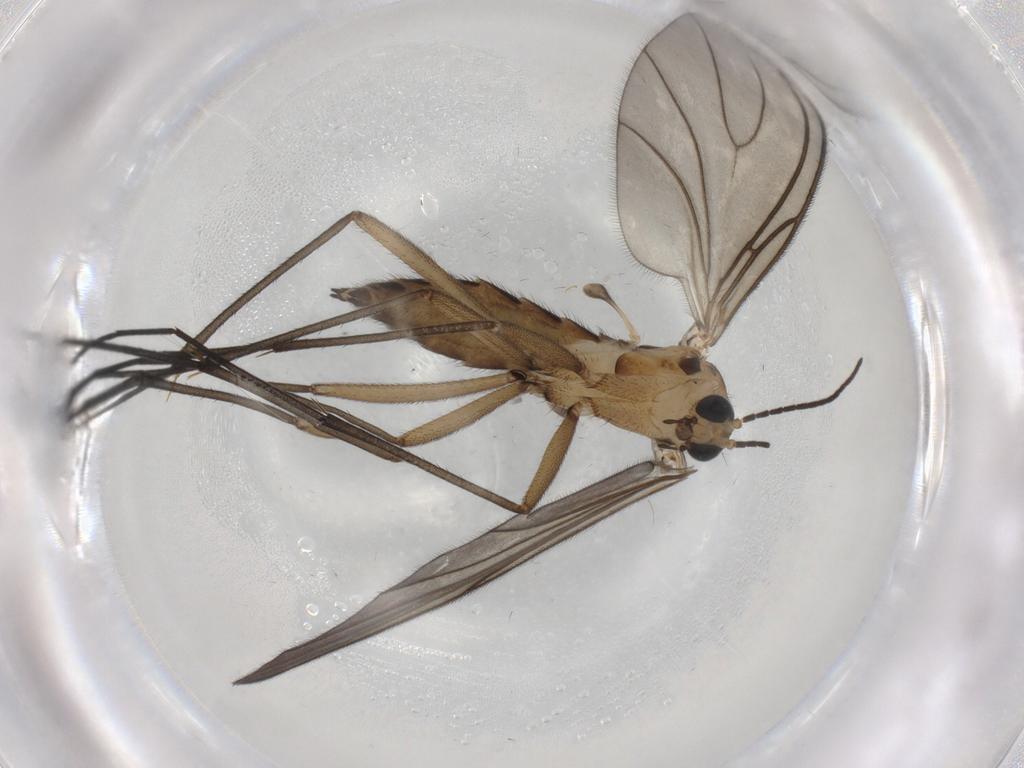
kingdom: Animalia
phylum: Arthropoda
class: Insecta
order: Diptera
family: Sciaridae
